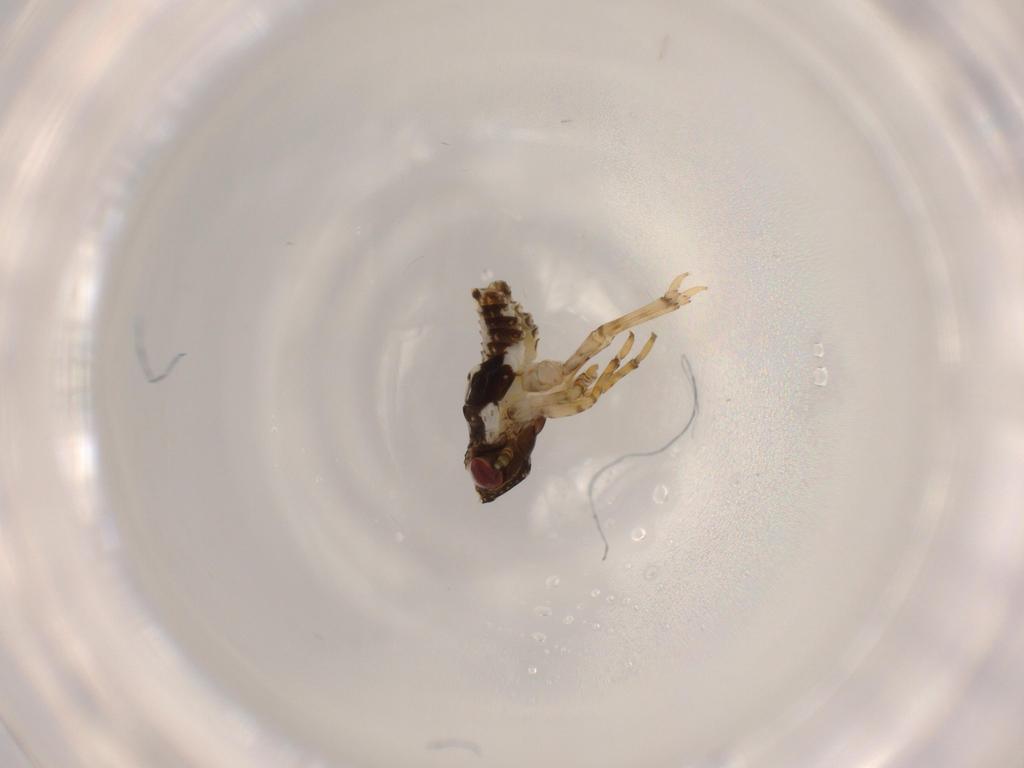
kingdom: Animalia
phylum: Arthropoda
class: Insecta
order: Hemiptera
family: Issidae
